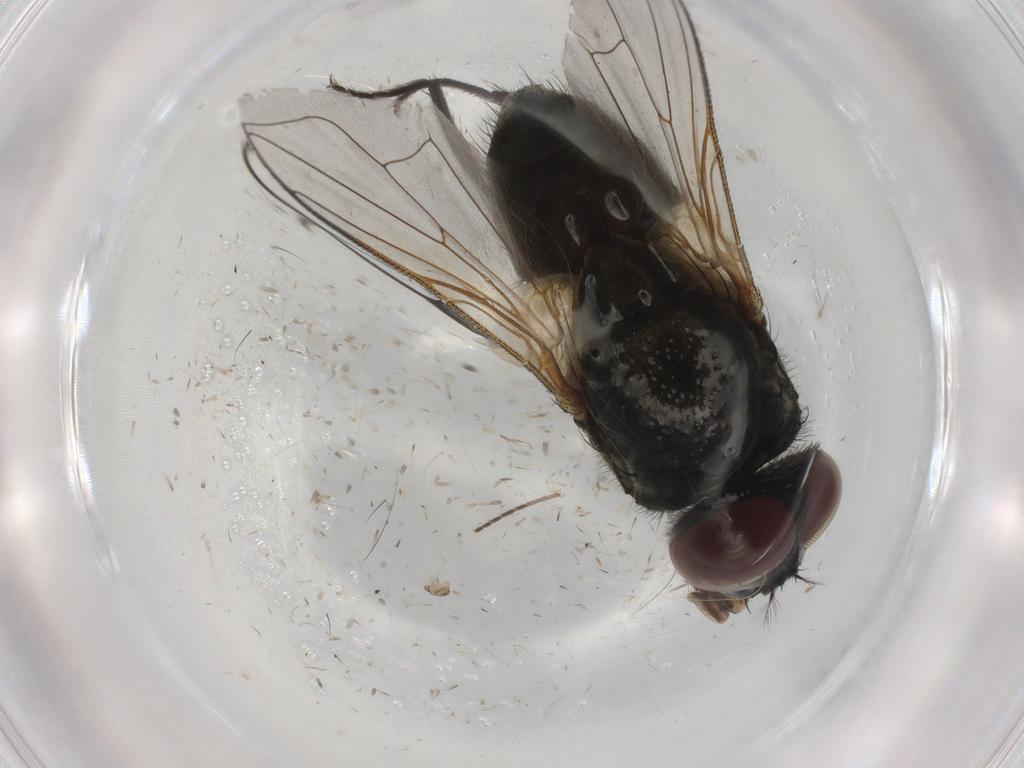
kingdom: Animalia
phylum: Arthropoda
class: Insecta
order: Diptera
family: Muscidae
